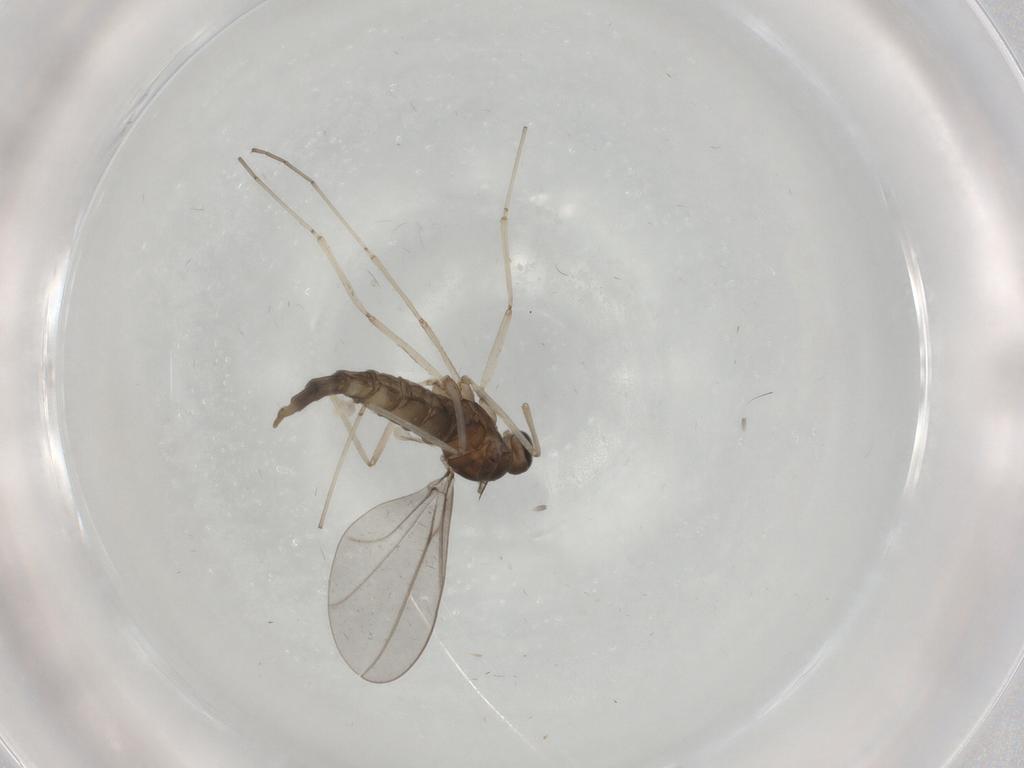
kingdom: Animalia
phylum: Arthropoda
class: Insecta
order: Diptera
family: Cecidomyiidae
